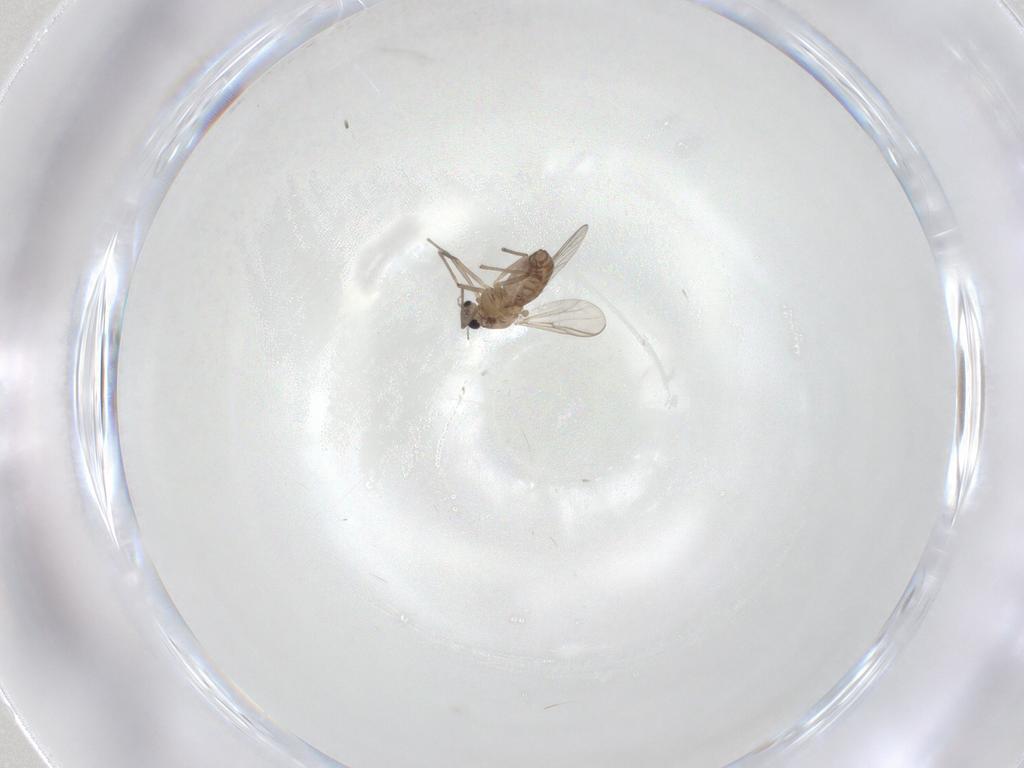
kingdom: Animalia
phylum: Arthropoda
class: Insecta
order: Diptera
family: Chironomidae
